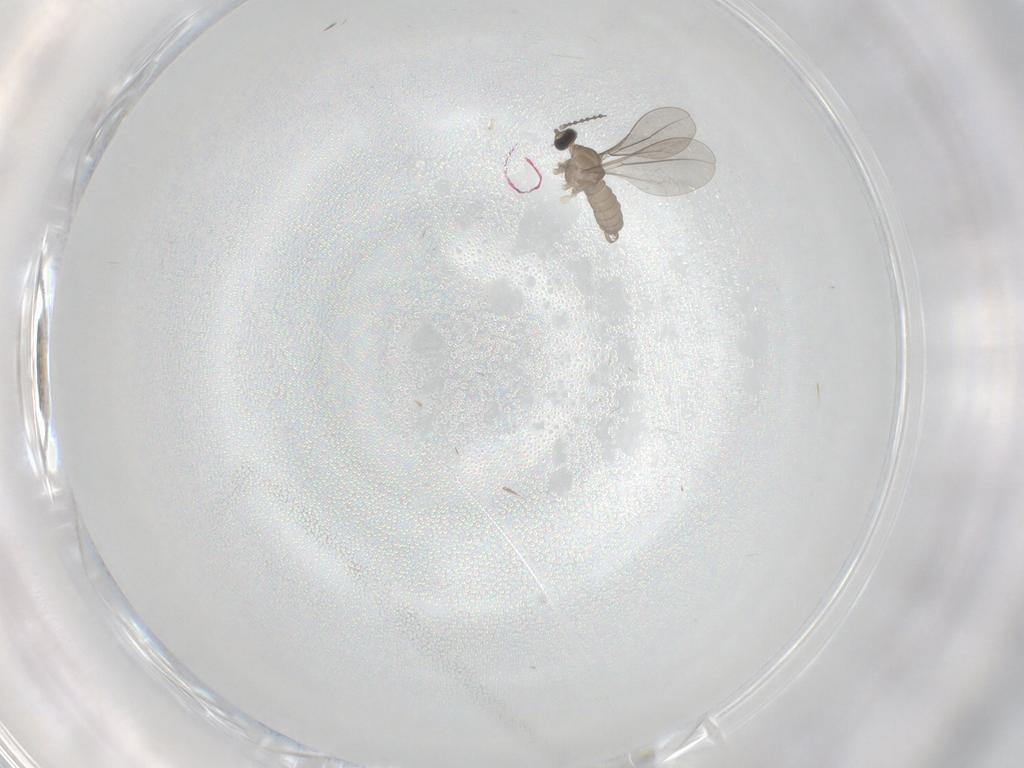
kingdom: Animalia
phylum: Arthropoda
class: Insecta
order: Diptera
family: Cecidomyiidae
